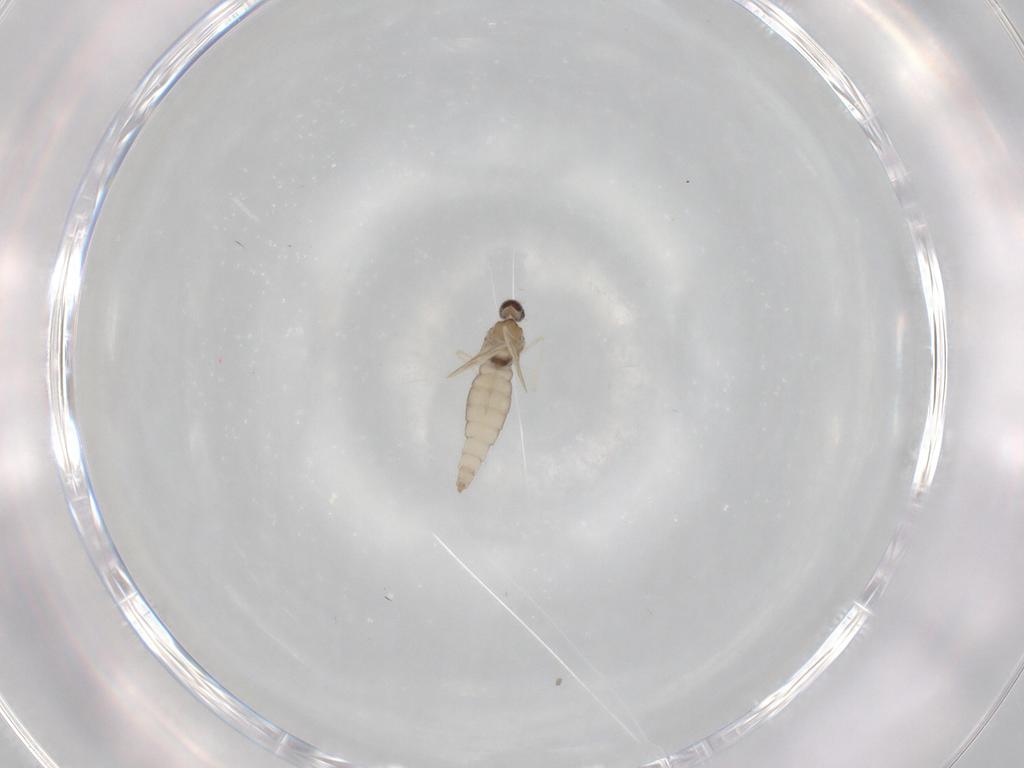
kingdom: Animalia
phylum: Arthropoda
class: Insecta
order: Diptera
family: Cecidomyiidae
